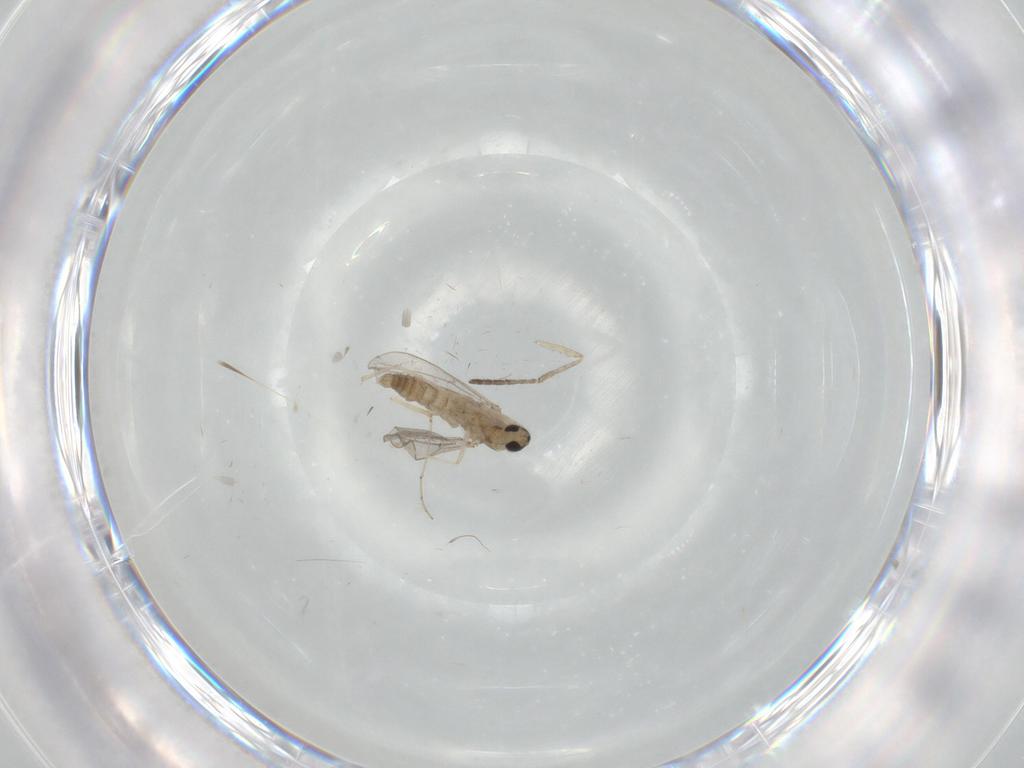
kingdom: Animalia
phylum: Arthropoda
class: Insecta
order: Diptera
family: Cecidomyiidae
